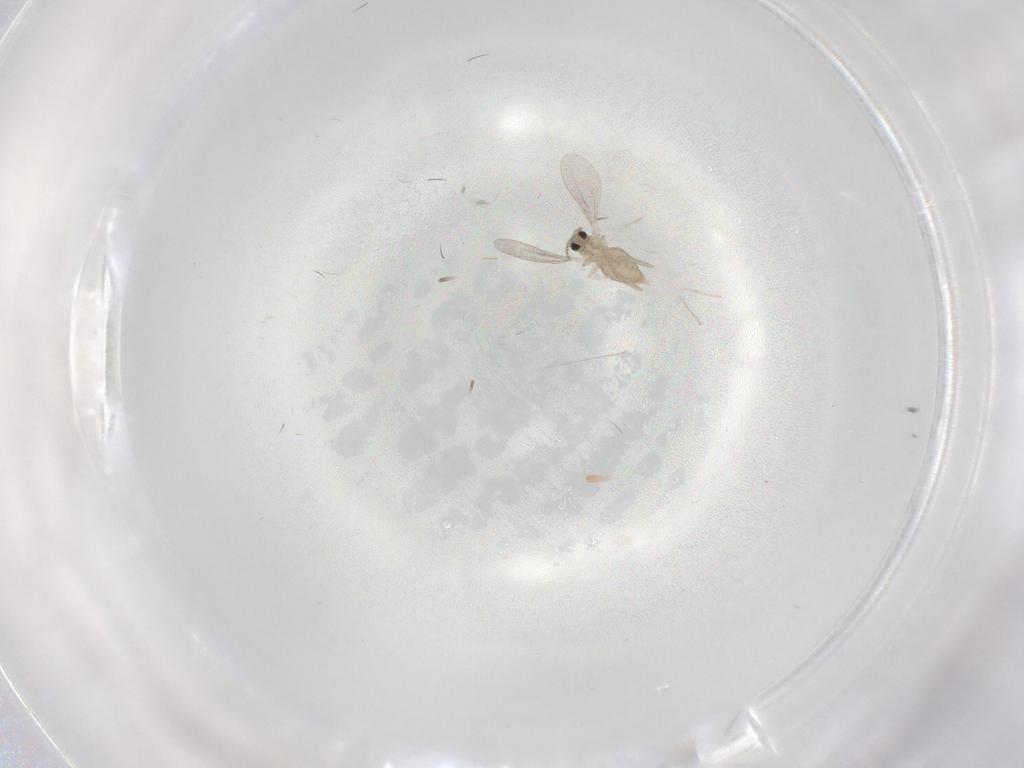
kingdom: Animalia
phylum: Arthropoda
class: Insecta
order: Diptera
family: Cecidomyiidae
